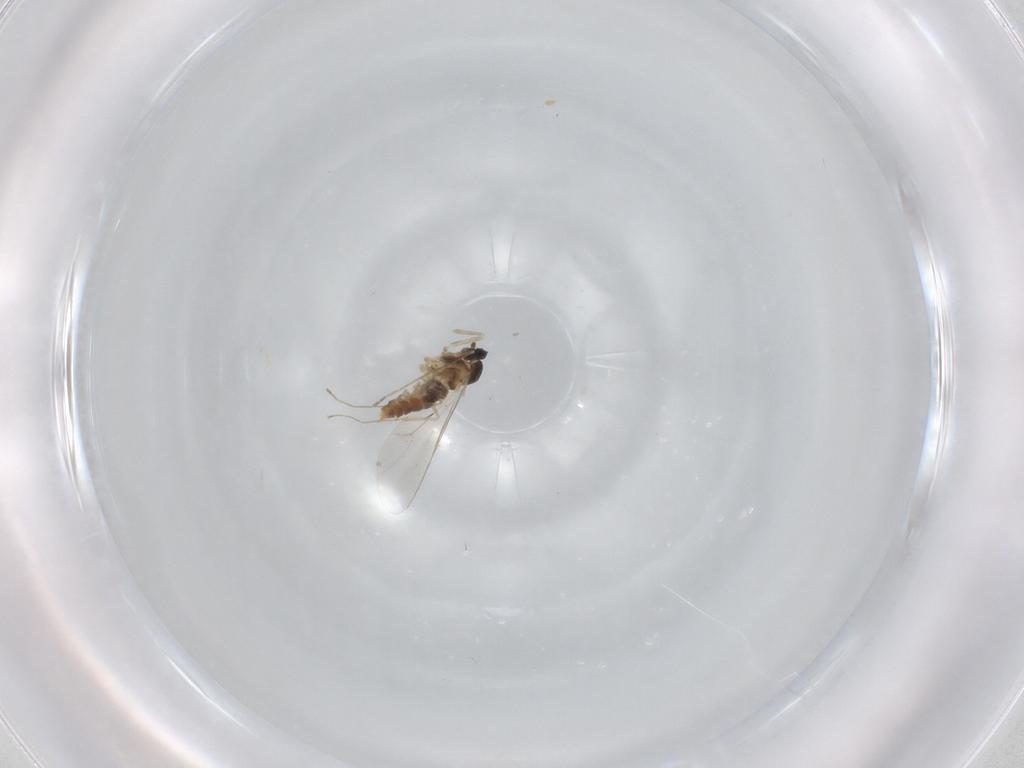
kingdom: Animalia
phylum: Arthropoda
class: Insecta
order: Diptera
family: Cecidomyiidae
